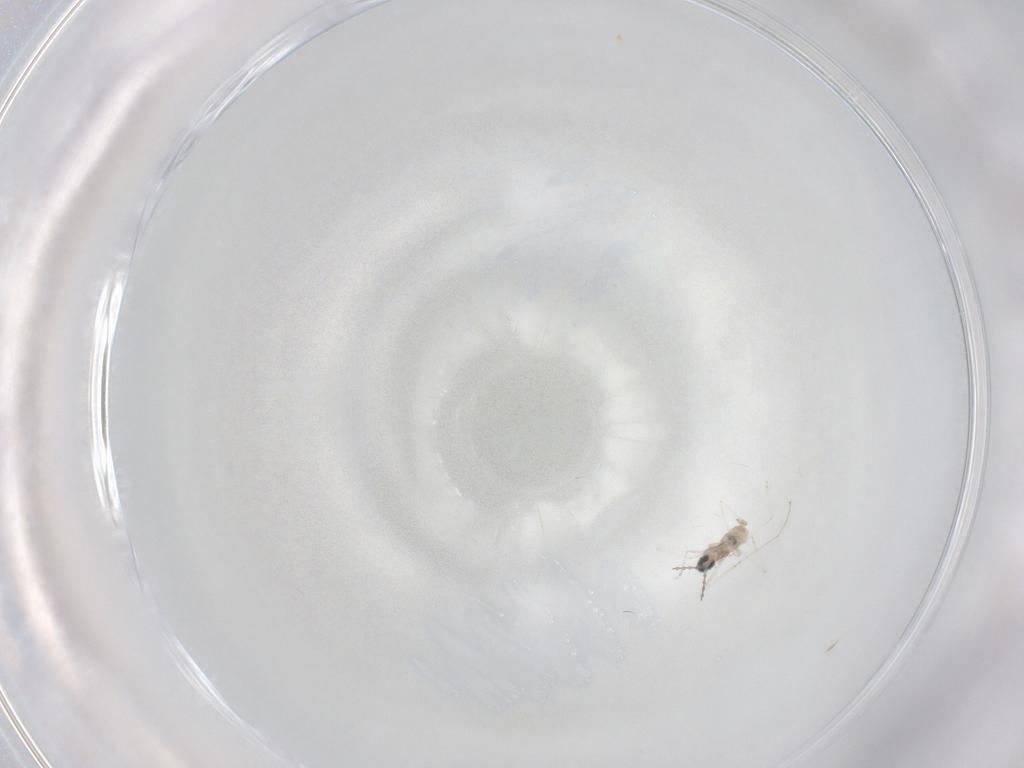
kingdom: Animalia
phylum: Arthropoda
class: Insecta
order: Diptera
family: Cecidomyiidae
